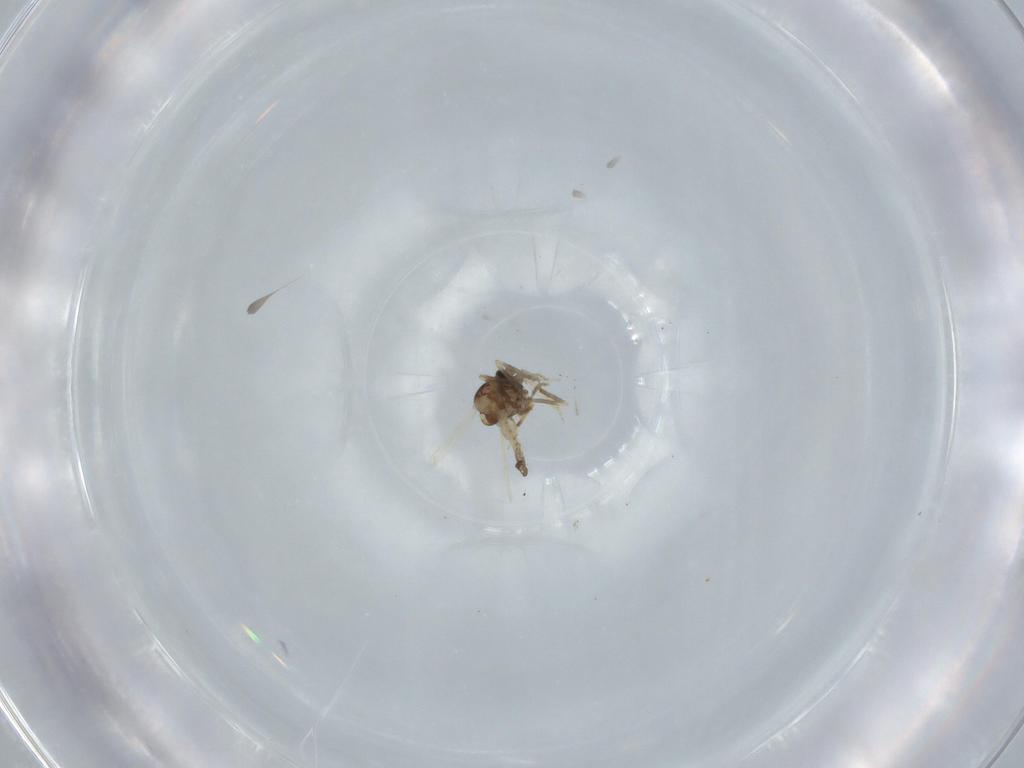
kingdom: Animalia
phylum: Arthropoda
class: Insecta
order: Diptera
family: Ceratopogonidae
